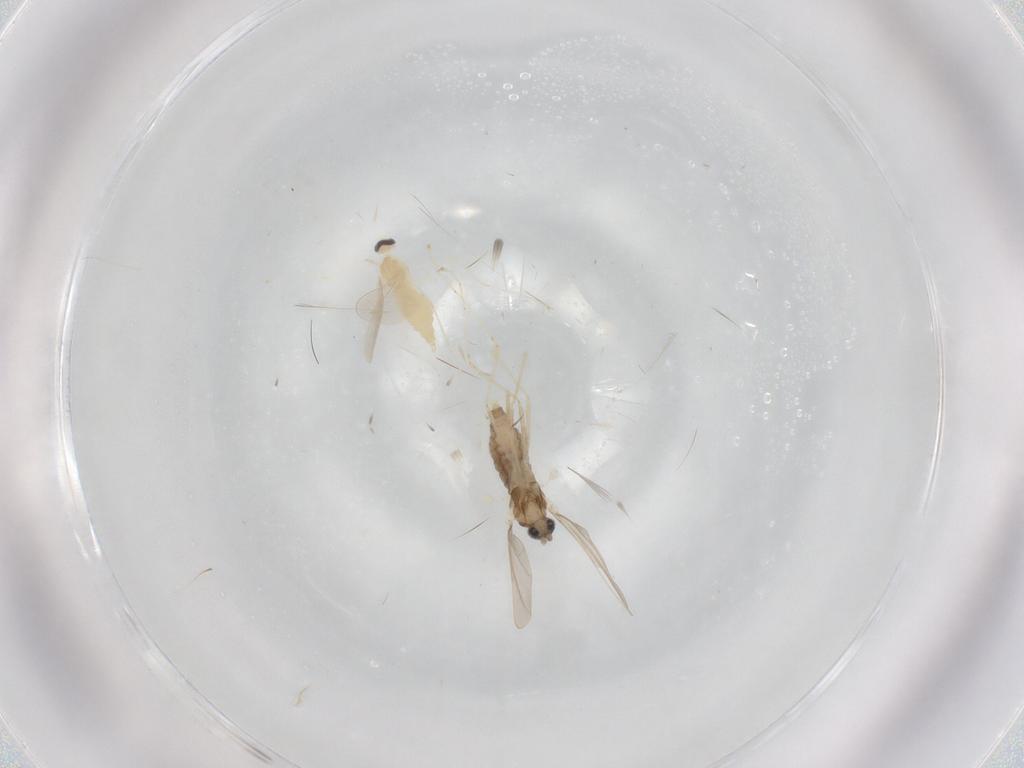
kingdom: Animalia
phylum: Arthropoda
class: Insecta
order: Diptera
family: Cecidomyiidae
